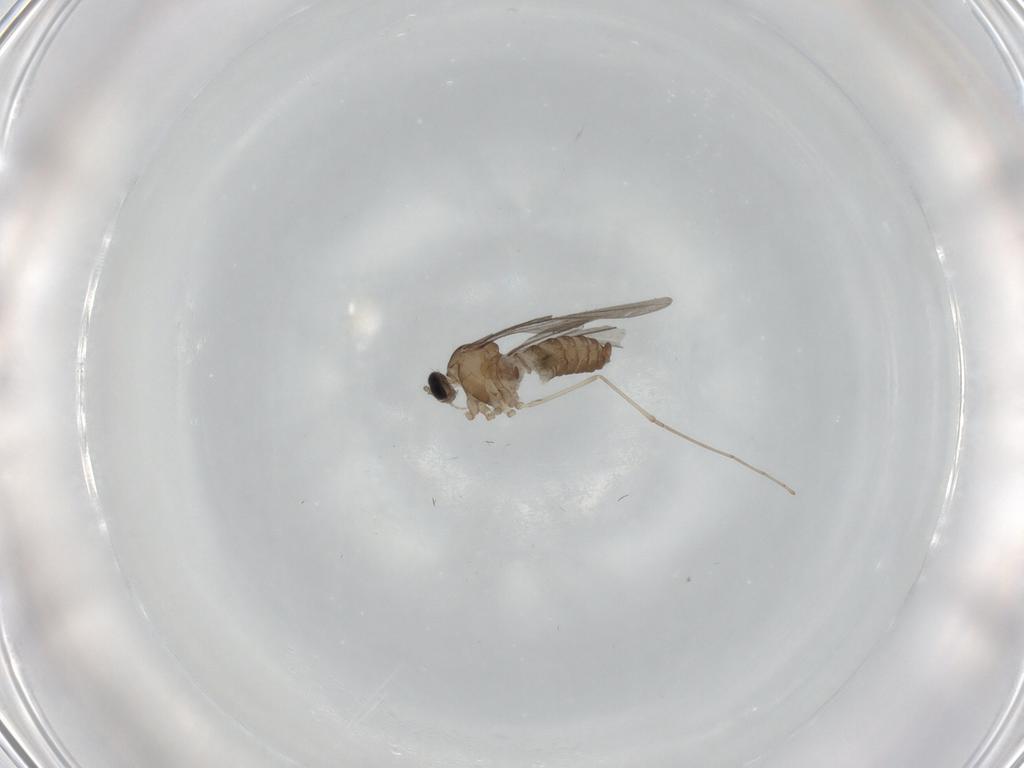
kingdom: Animalia
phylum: Arthropoda
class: Insecta
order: Diptera
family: Cecidomyiidae
